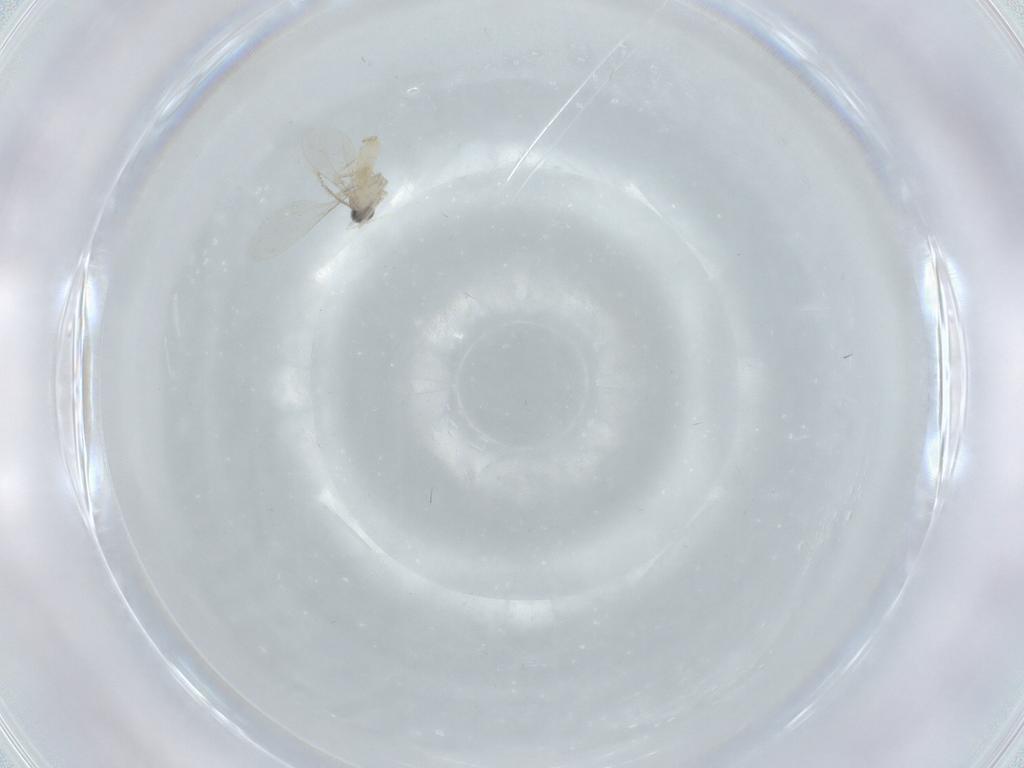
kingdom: Animalia
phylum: Arthropoda
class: Insecta
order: Diptera
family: Cecidomyiidae
